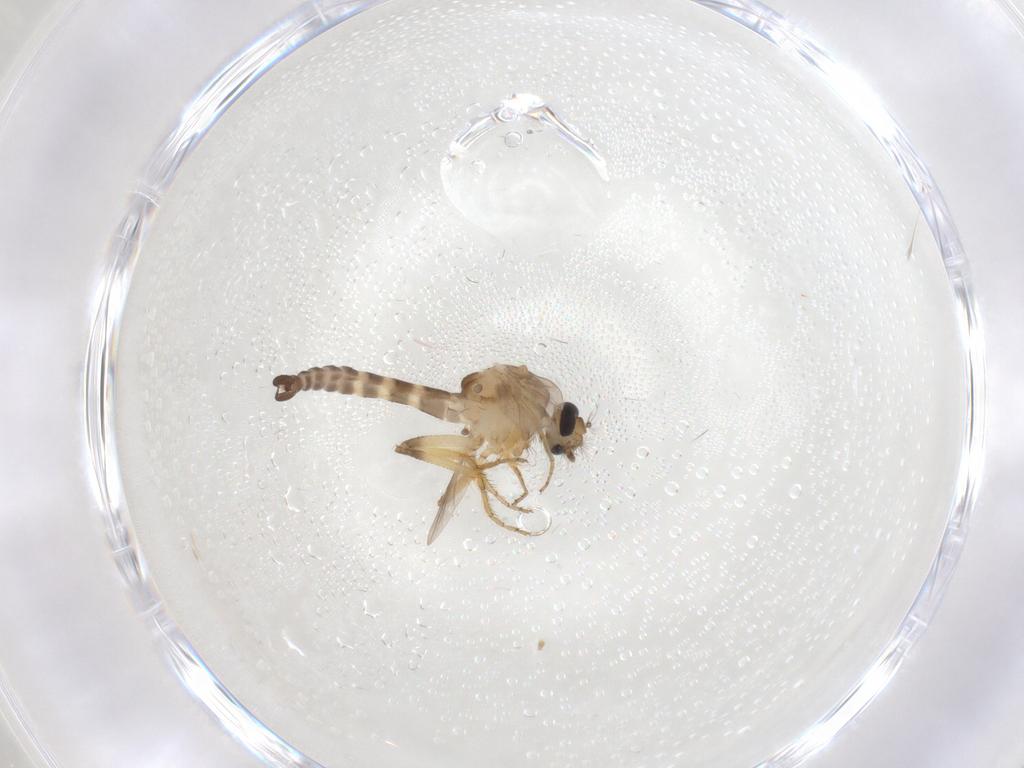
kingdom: Animalia
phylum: Arthropoda
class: Insecta
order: Diptera
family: Ceratopogonidae
